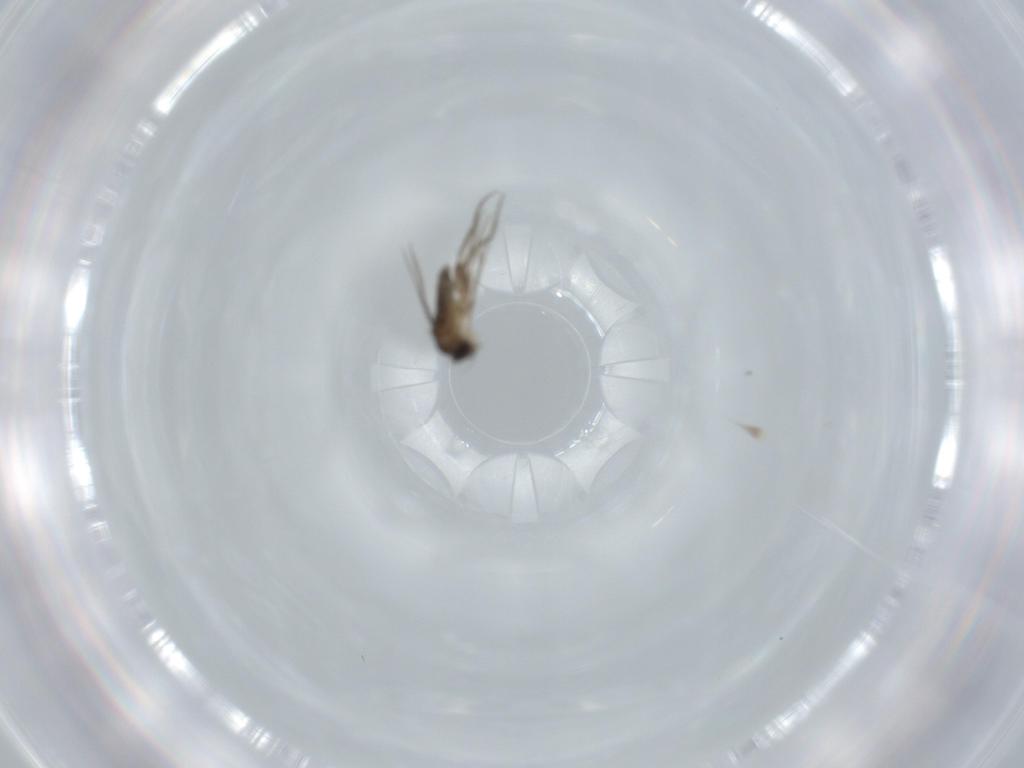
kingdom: Animalia
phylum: Arthropoda
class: Insecta
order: Diptera
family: Phoridae
